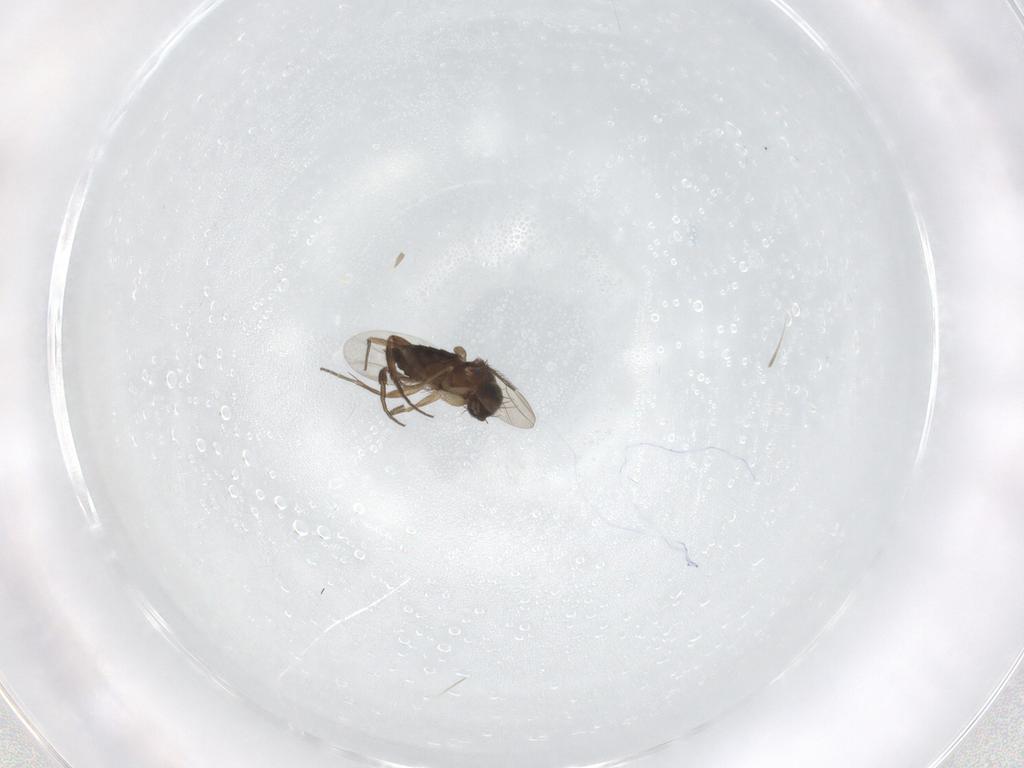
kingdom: Animalia
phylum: Arthropoda
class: Insecta
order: Diptera
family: Phoridae
